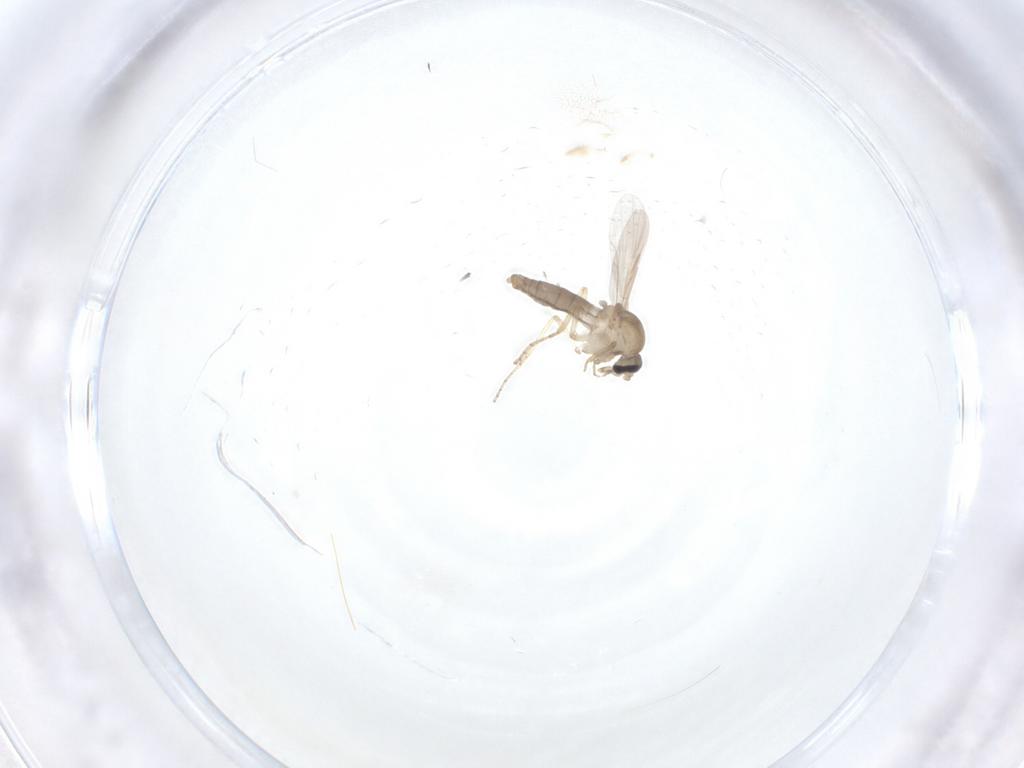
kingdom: Animalia
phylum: Arthropoda
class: Insecta
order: Diptera
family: Ceratopogonidae
